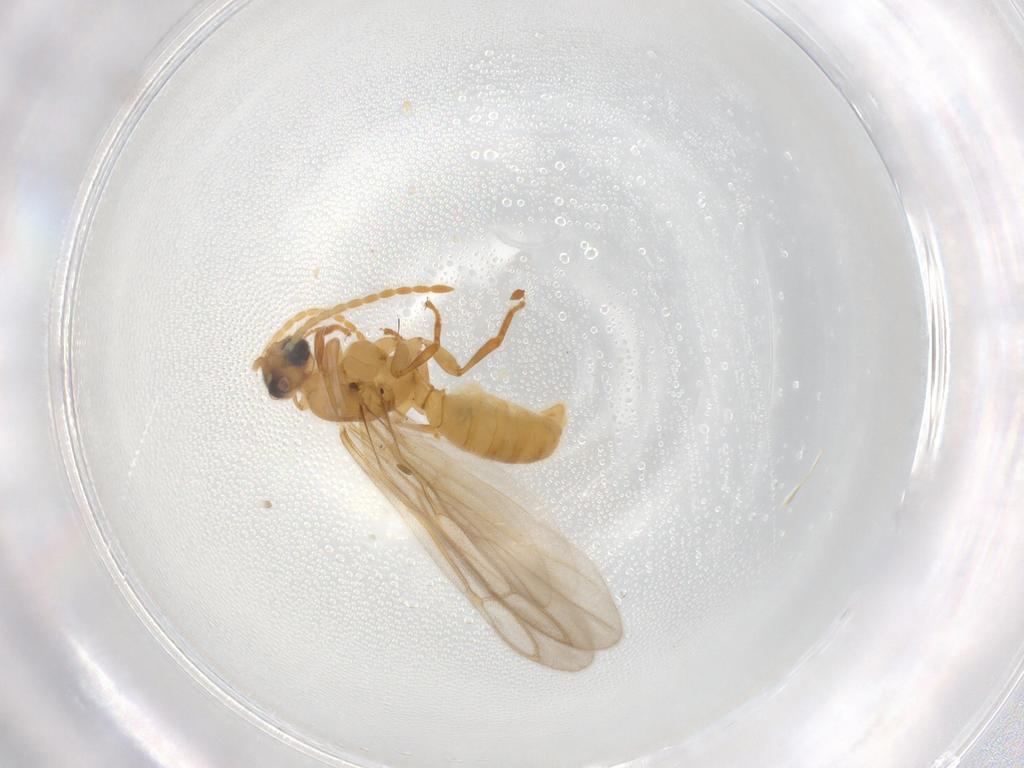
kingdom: Animalia
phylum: Arthropoda
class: Insecta
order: Hymenoptera
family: Formicidae
